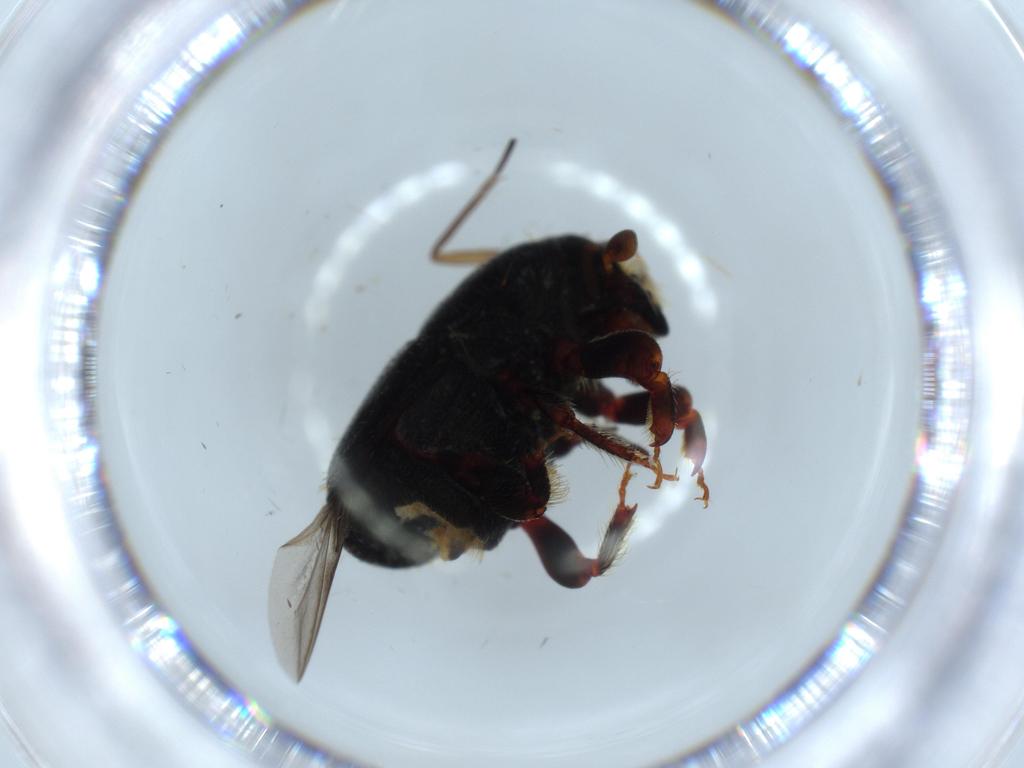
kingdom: Animalia
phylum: Arthropoda
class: Insecta
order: Coleoptera
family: Curculionidae
